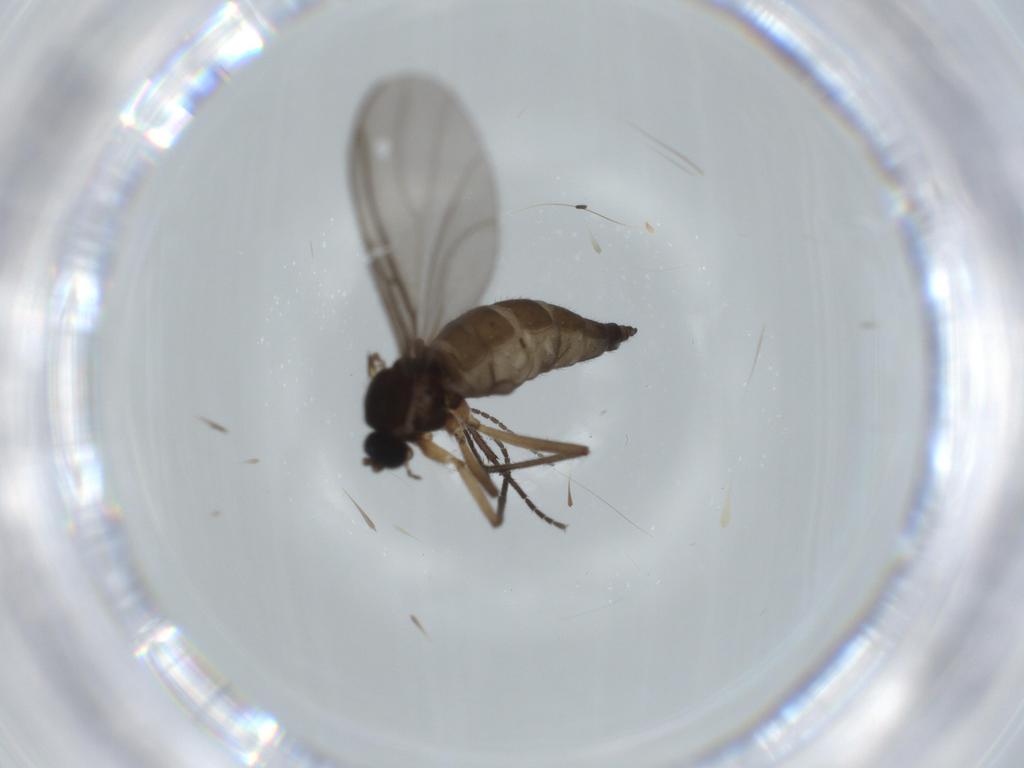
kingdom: Animalia
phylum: Arthropoda
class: Insecta
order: Diptera
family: Sciaridae
